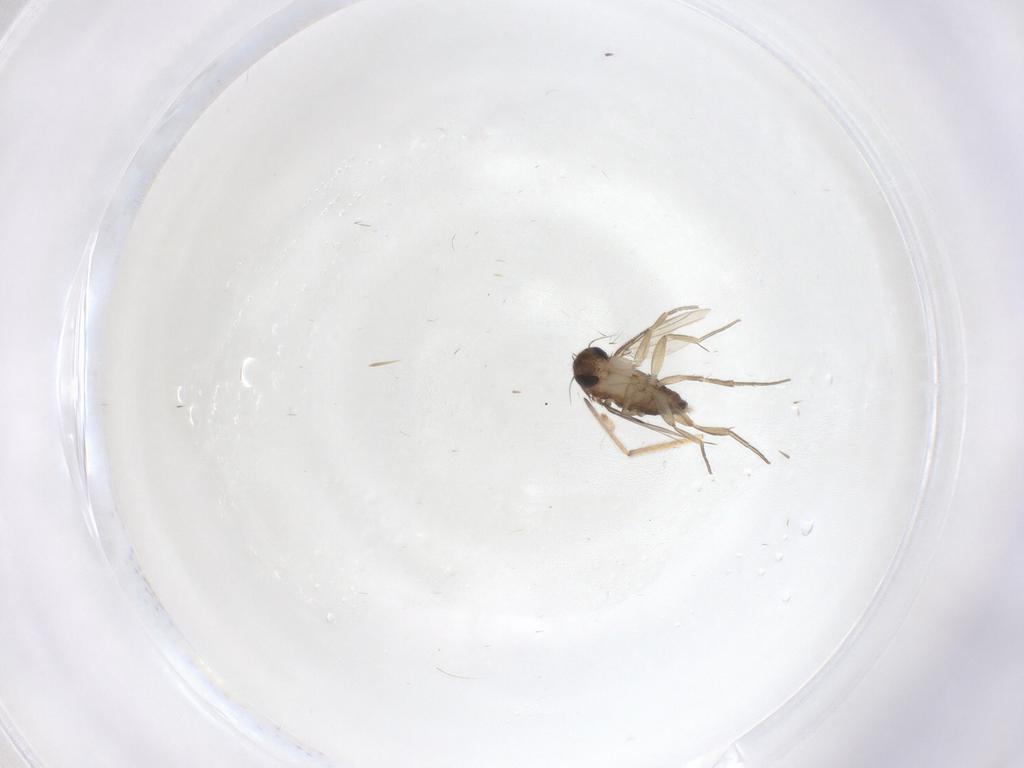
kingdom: Animalia
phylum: Arthropoda
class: Insecta
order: Diptera
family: Phoridae
